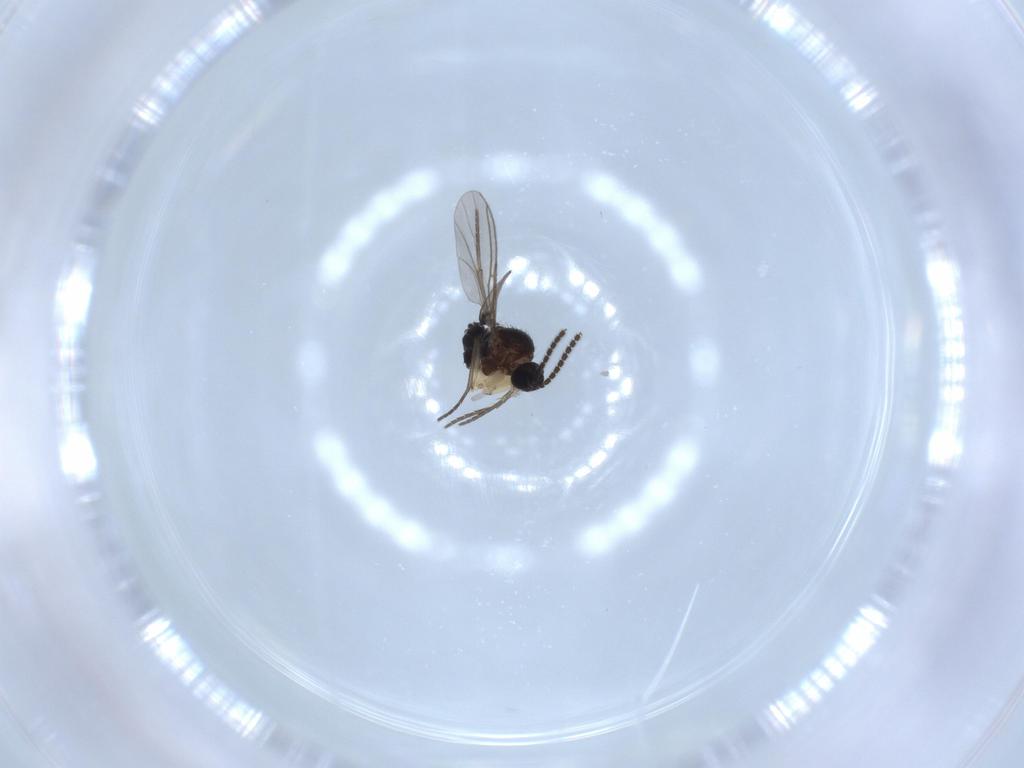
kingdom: Animalia
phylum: Arthropoda
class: Insecta
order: Diptera
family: Sciaridae
